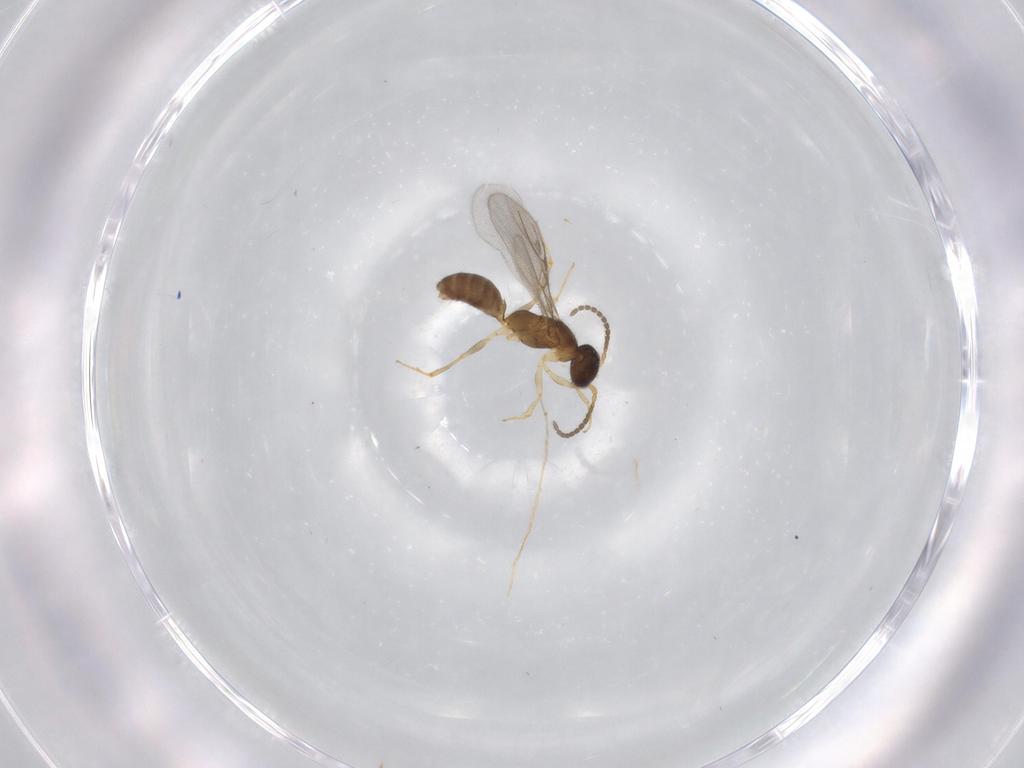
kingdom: Animalia
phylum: Arthropoda
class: Insecta
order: Hymenoptera
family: Bethylidae
